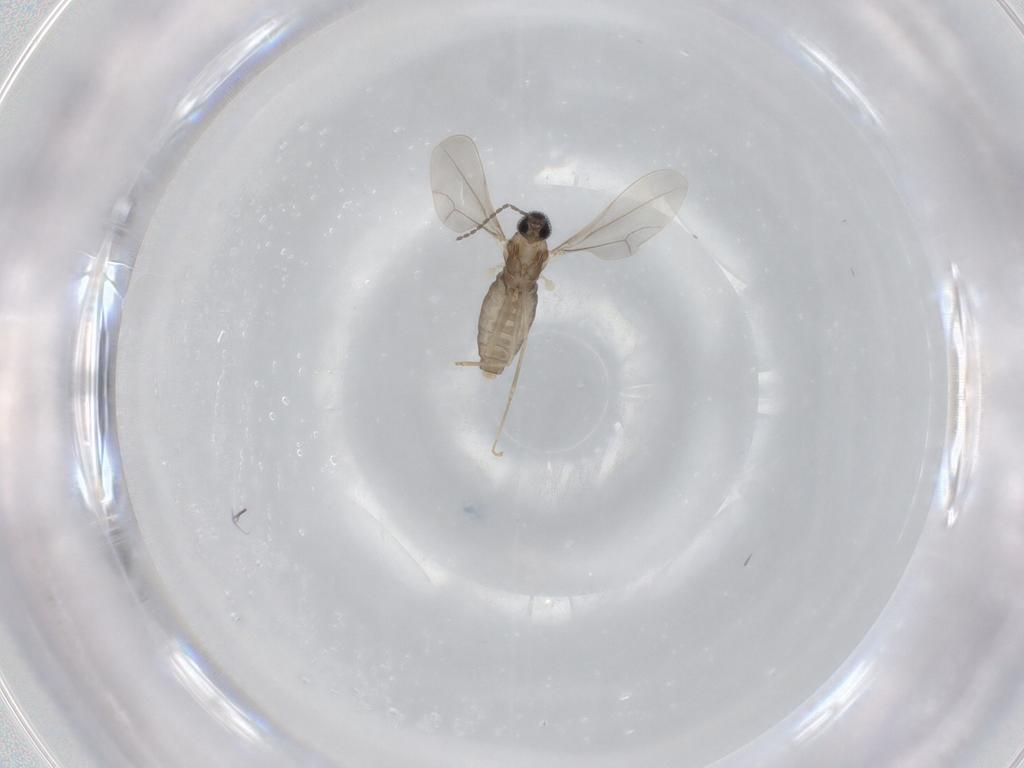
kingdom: Animalia
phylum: Arthropoda
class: Insecta
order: Diptera
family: Cecidomyiidae
